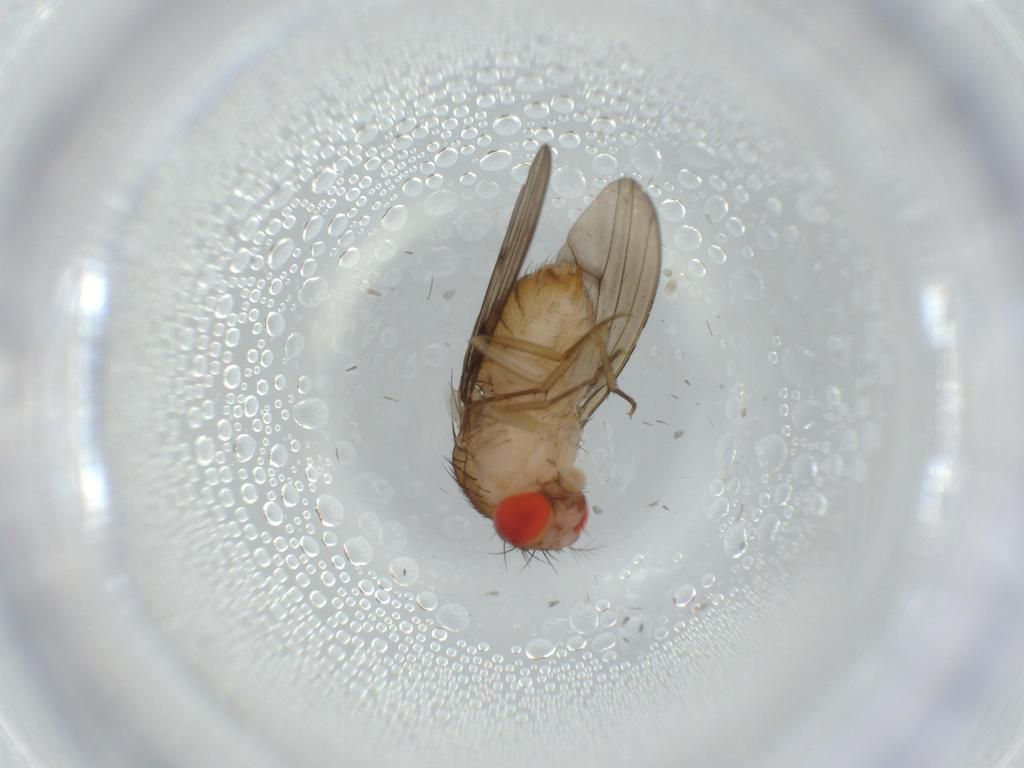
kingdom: Animalia
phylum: Arthropoda
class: Insecta
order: Diptera
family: Drosophilidae
